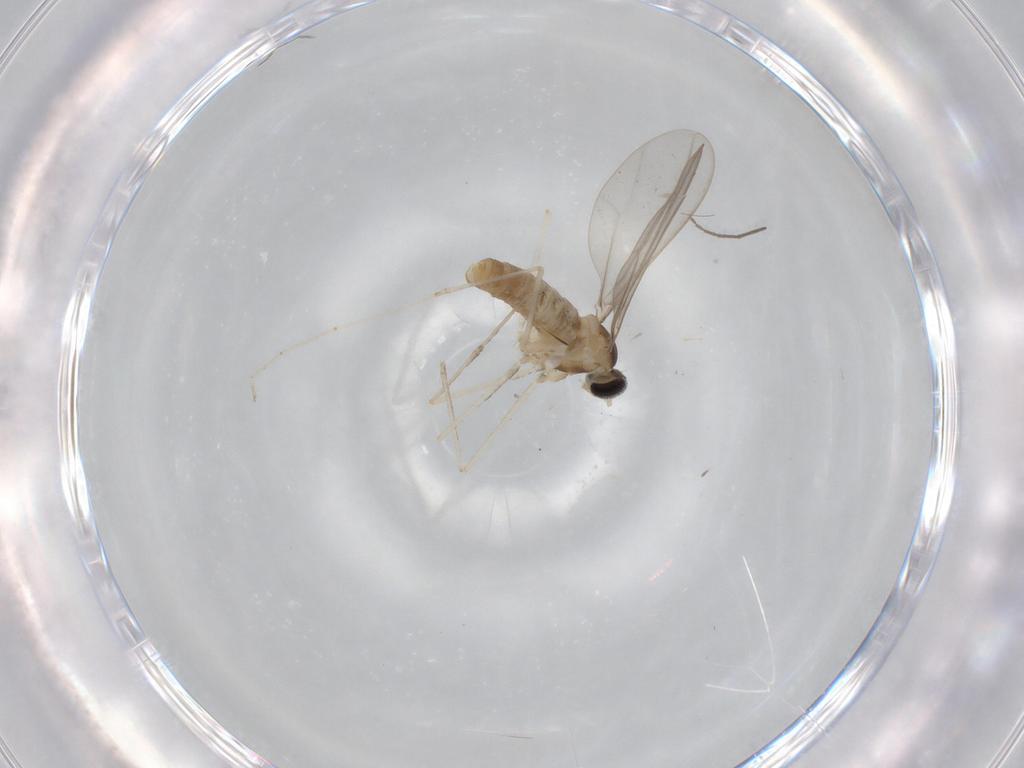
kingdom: Animalia
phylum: Arthropoda
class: Insecta
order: Diptera
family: Cecidomyiidae
